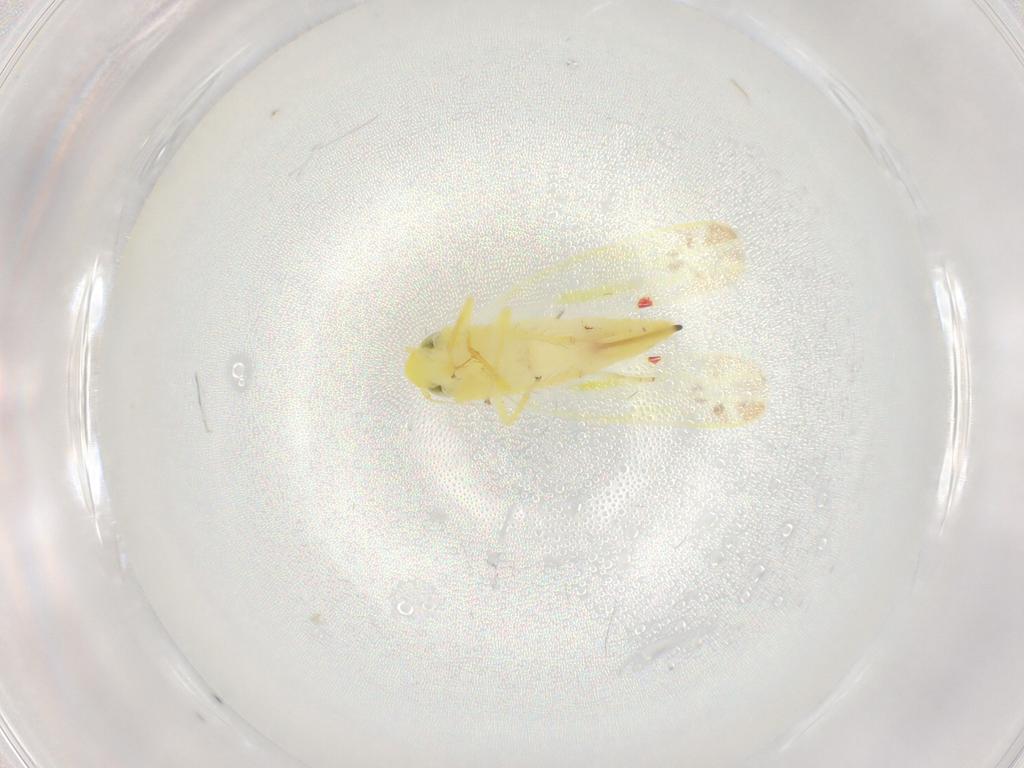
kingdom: Animalia
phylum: Arthropoda
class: Insecta
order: Hemiptera
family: Cicadellidae
